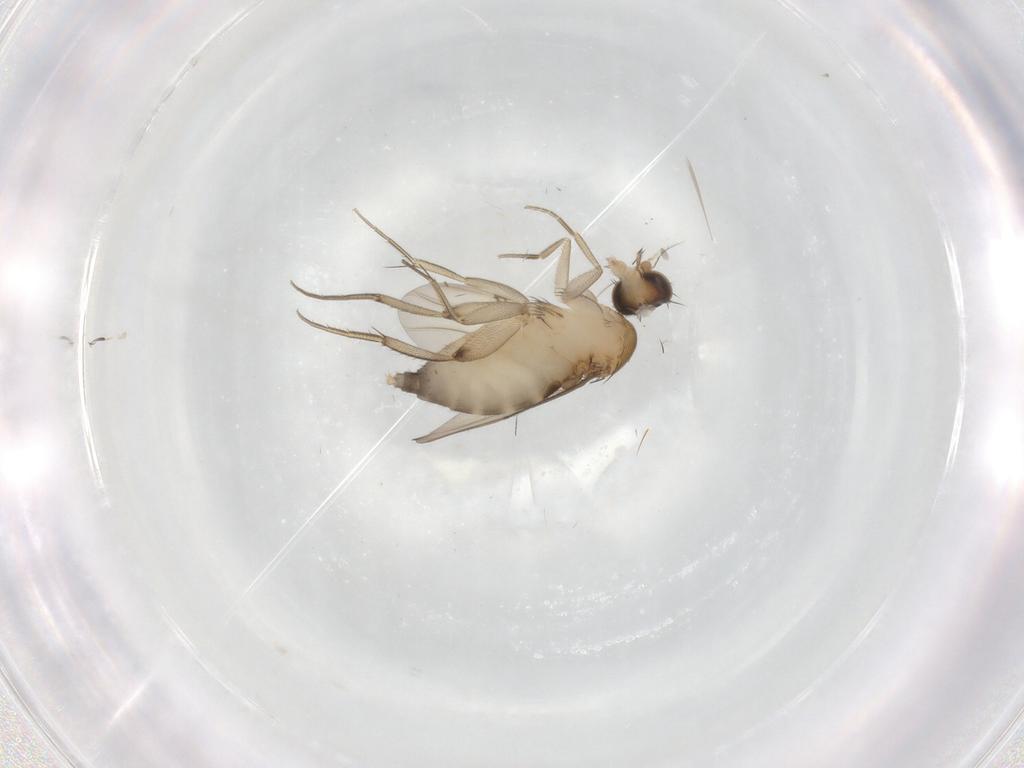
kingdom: Animalia
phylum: Arthropoda
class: Insecta
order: Diptera
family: Phoridae
